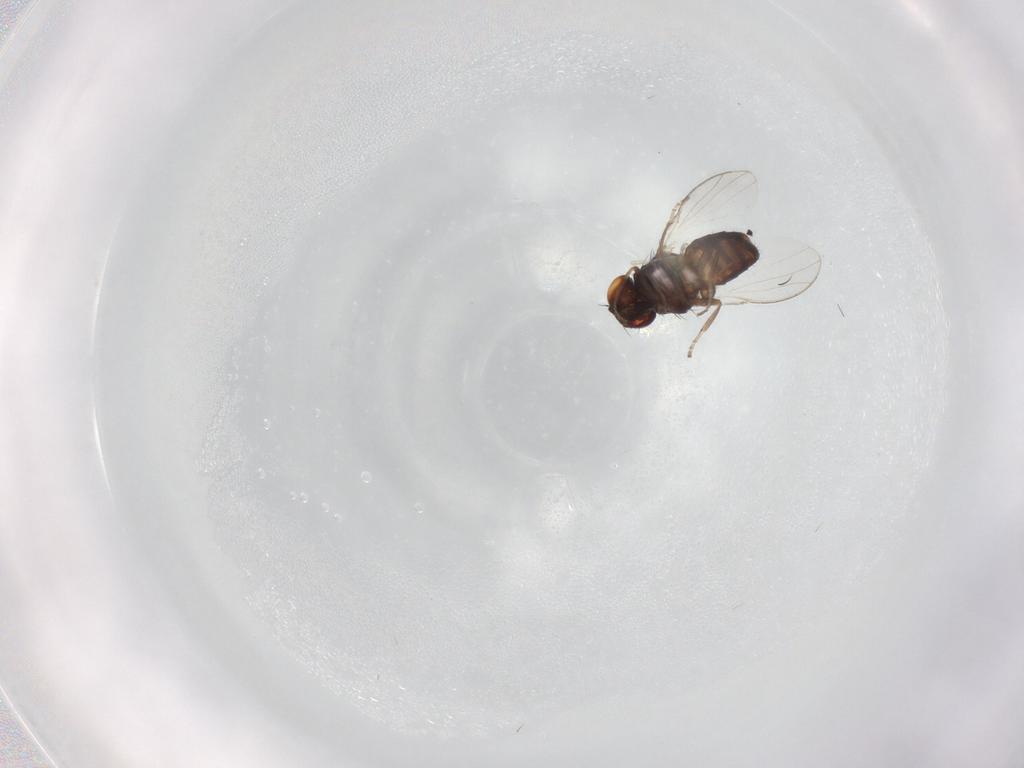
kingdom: Animalia
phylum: Arthropoda
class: Insecta
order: Diptera
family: Carnidae
